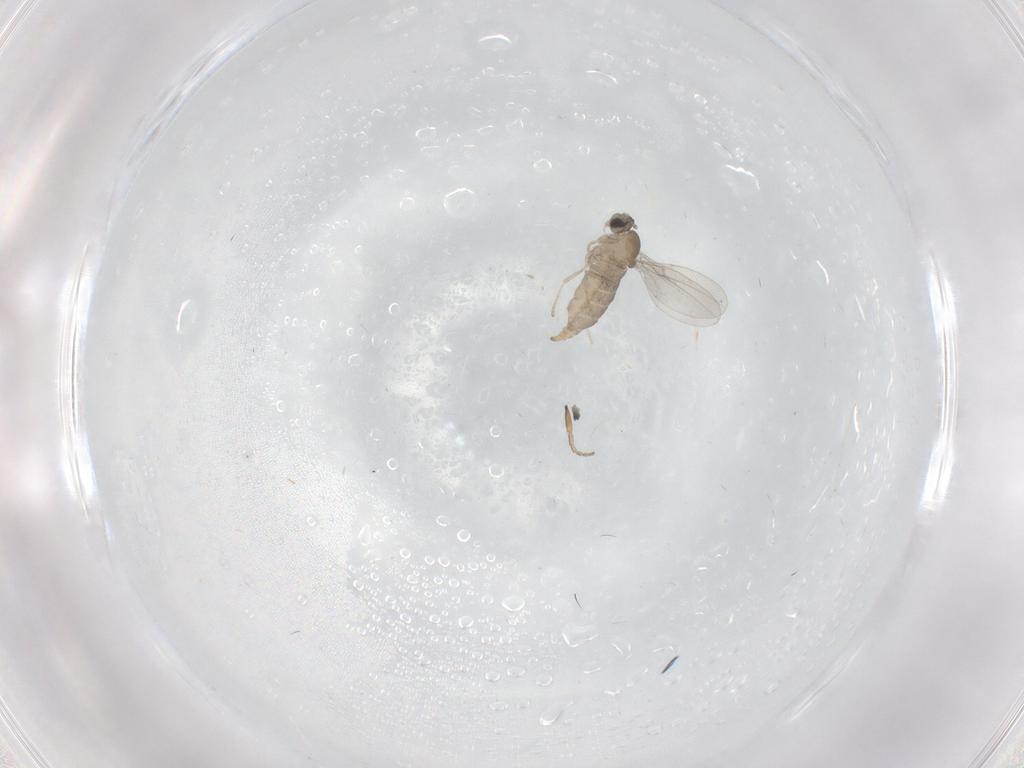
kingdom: Animalia
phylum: Arthropoda
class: Insecta
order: Diptera
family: Cecidomyiidae
